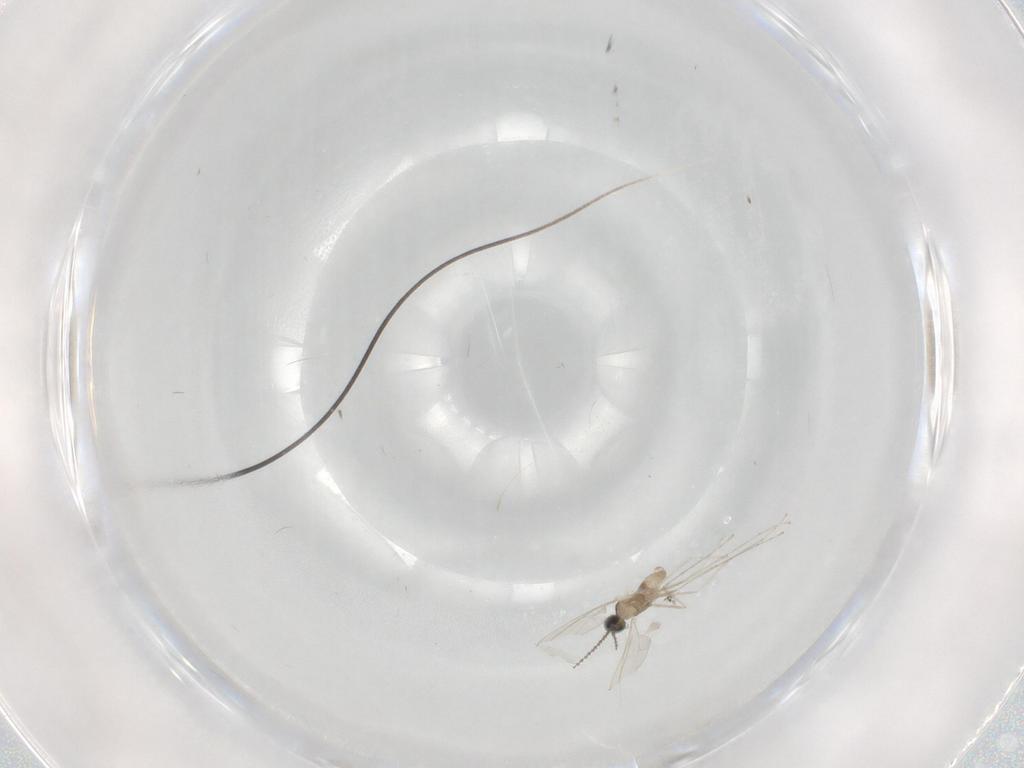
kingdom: Animalia
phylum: Arthropoda
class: Insecta
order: Diptera
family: Cecidomyiidae
